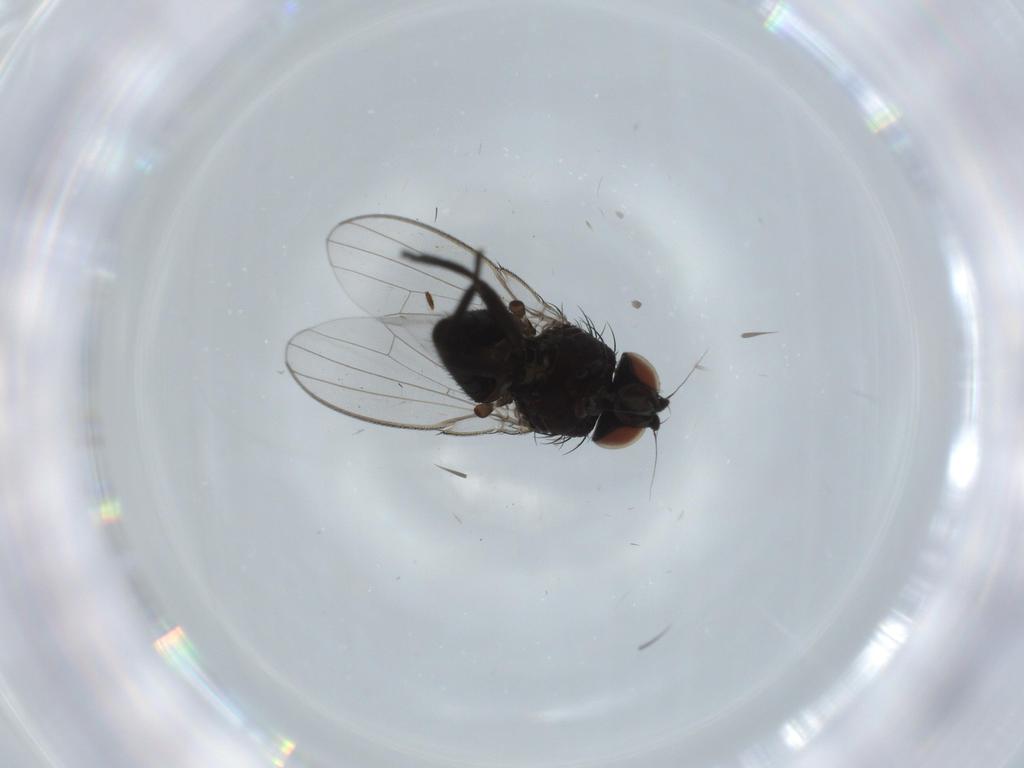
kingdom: Animalia
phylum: Arthropoda
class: Insecta
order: Diptera
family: Milichiidae
